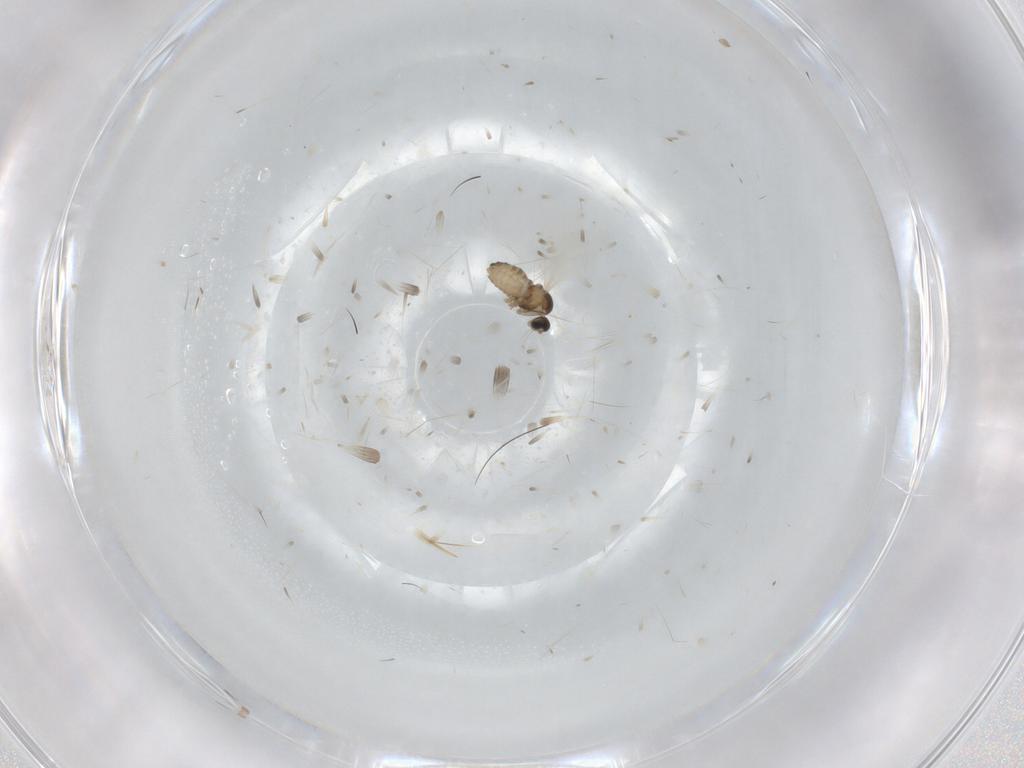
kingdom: Animalia
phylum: Arthropoda
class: Insecta
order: Diptera
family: Cecidomyiidae
